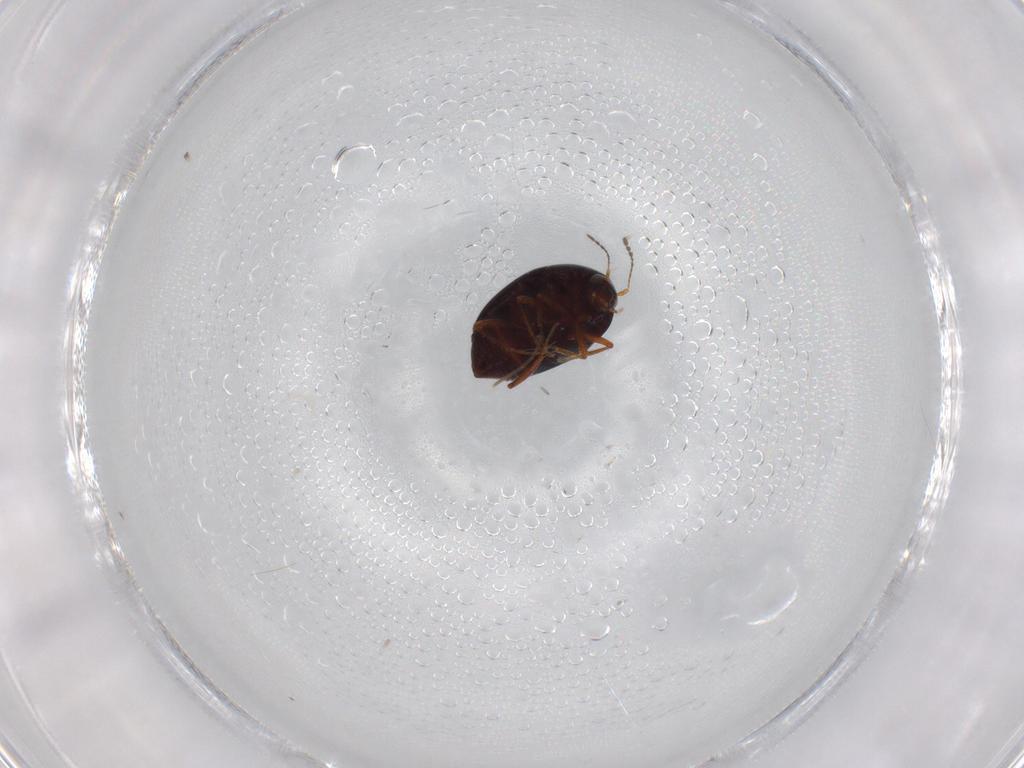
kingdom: Animalia
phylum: Arthropoda
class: Insecta
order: Coleoptera
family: Staphylinidae
